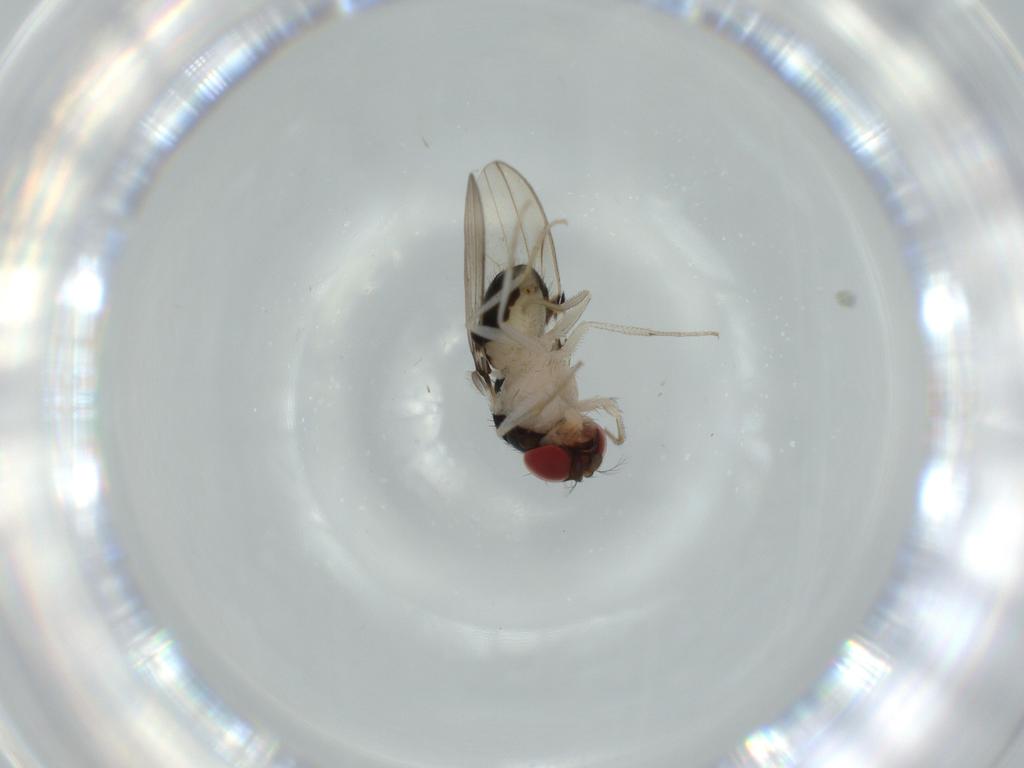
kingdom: Animalia
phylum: Arthropoda
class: Insecta
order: Diptera
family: Drosophilidae
